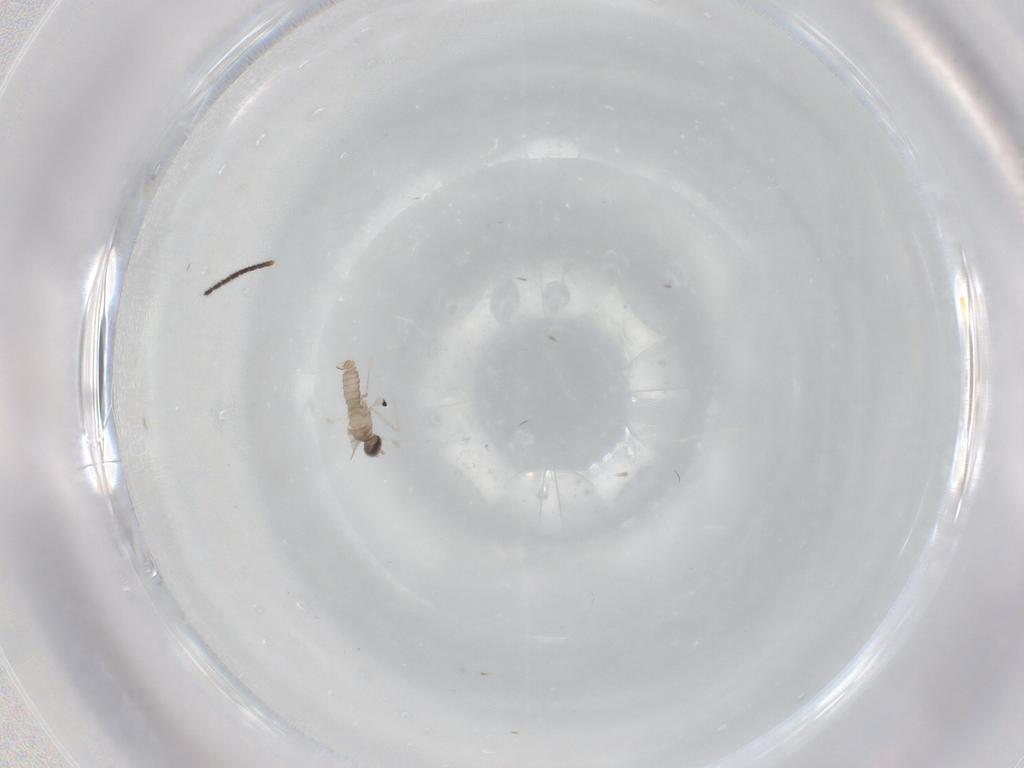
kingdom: Animalia
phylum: Arthropoda
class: Insecta
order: Diptera
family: Cecidomyiidae
